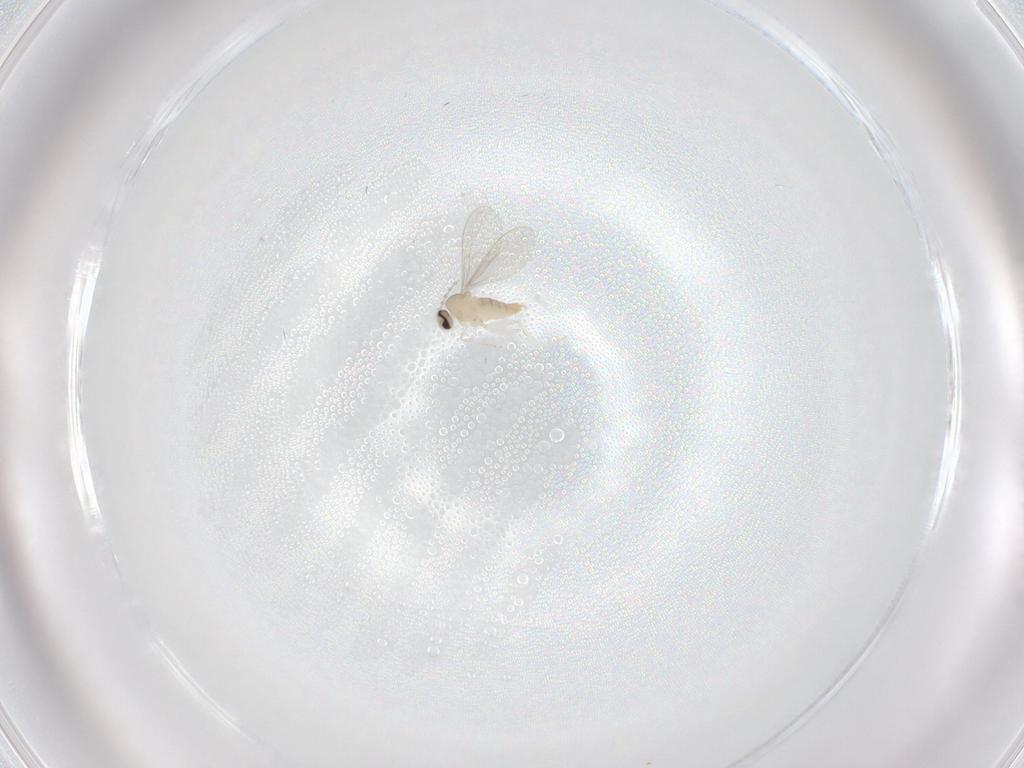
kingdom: Animalia
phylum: Arthropoda
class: Insecta
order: Diptera
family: Cecidomyiidae
